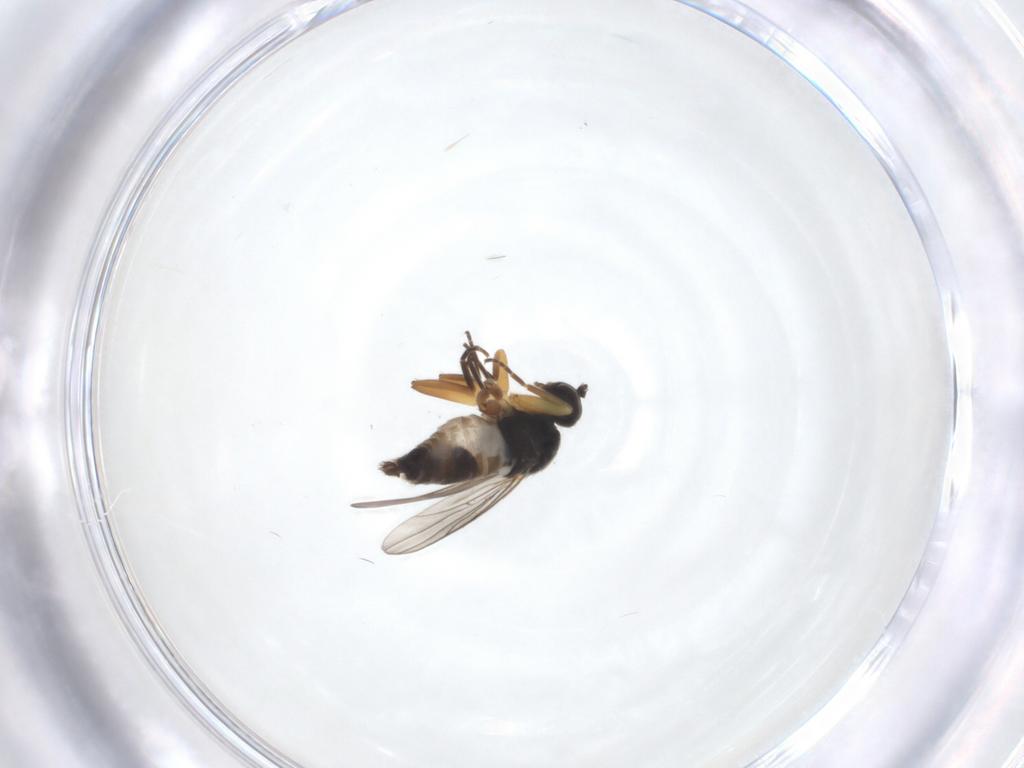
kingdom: Animalia
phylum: Arthropoda
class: Insecta
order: Diptera
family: Hybotidae
